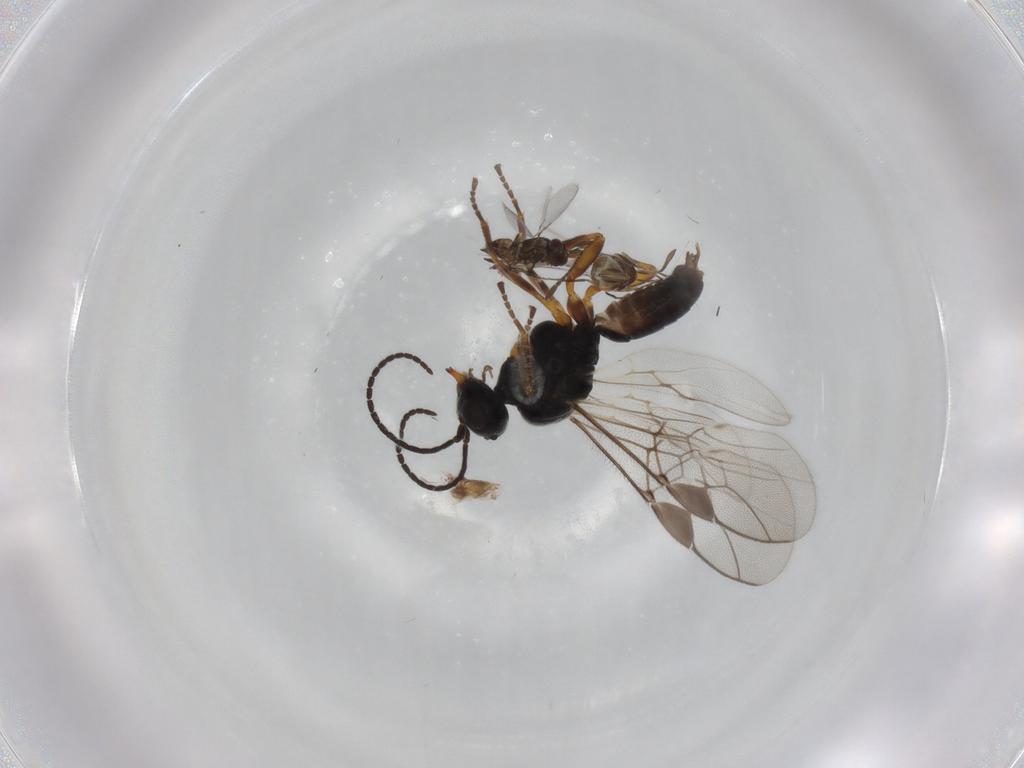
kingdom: Animalia
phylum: Arthropoda
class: Insecta
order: Hymenoptera
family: Braconidae
